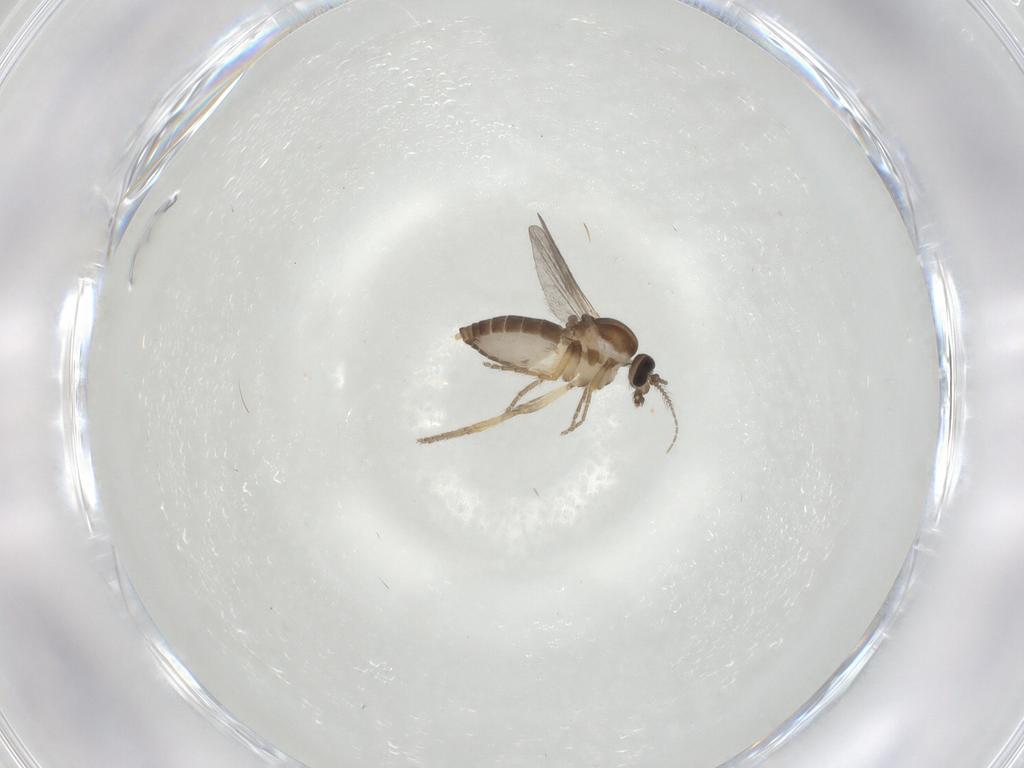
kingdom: Animalia
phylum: Arthropoda
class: Insecta
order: Diptera
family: Ceratopogonidae
